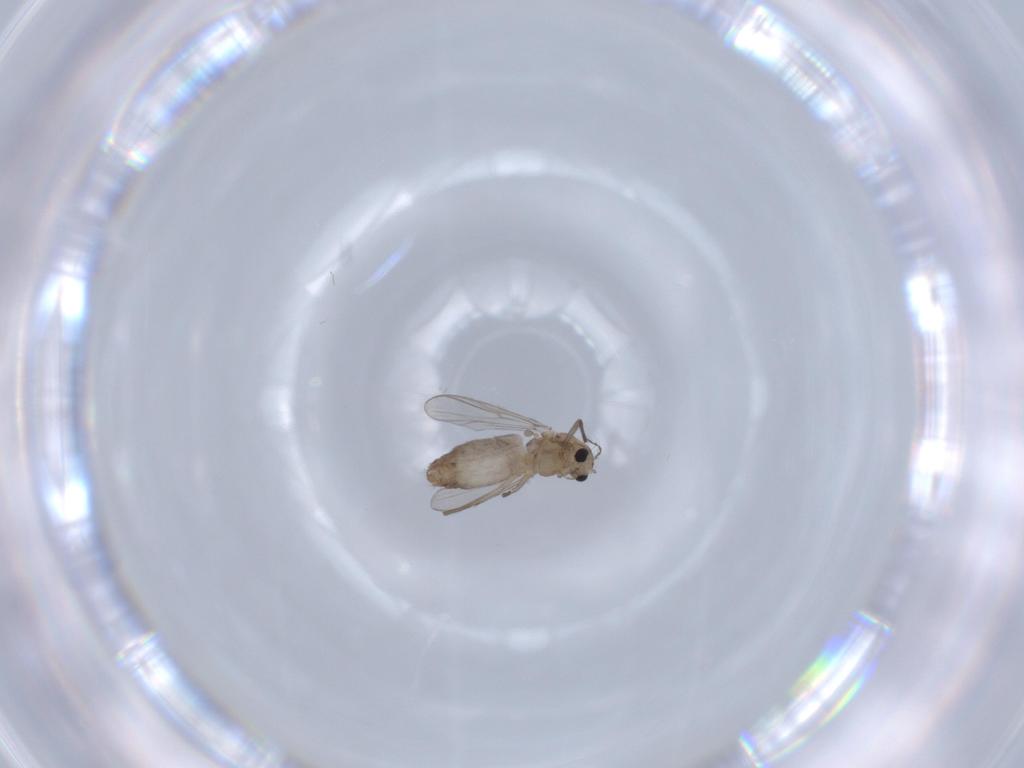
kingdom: Animalia
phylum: Arthropoda
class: Insecta
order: Diptera
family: Chironomidae
